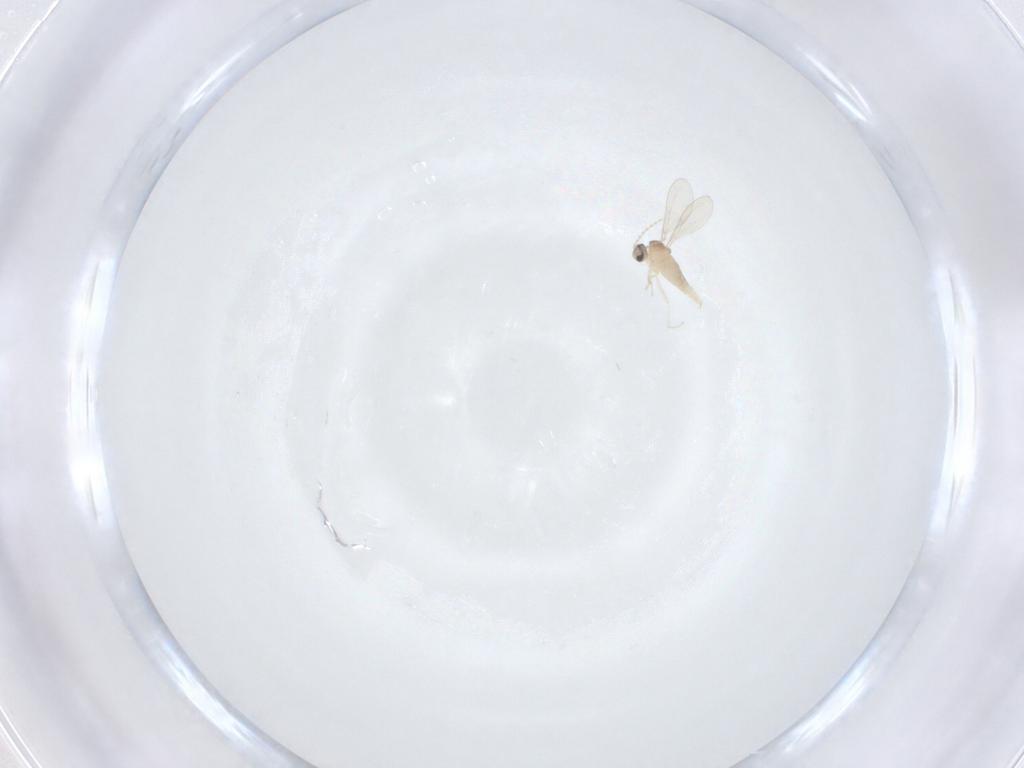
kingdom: Animalia
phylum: Arthropoda
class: Insecta
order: Diptera
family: Cecidomyiidae
